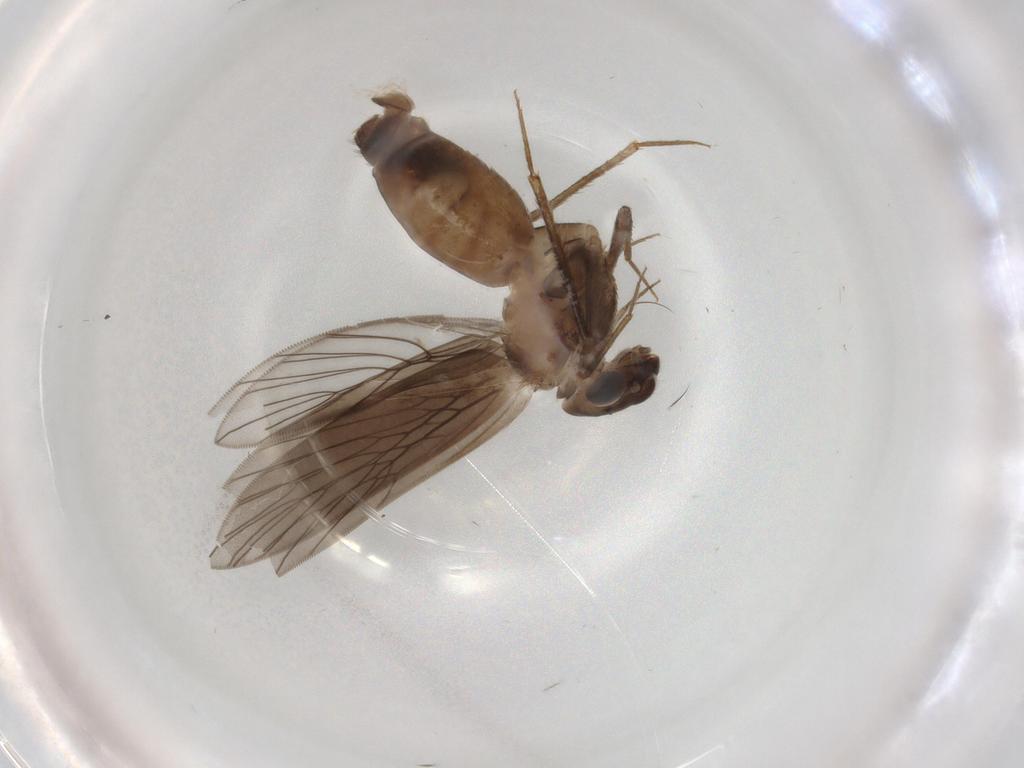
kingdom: Animalia
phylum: Arthropoda
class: Insecta
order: Psocodea
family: Lepidopsocidae
